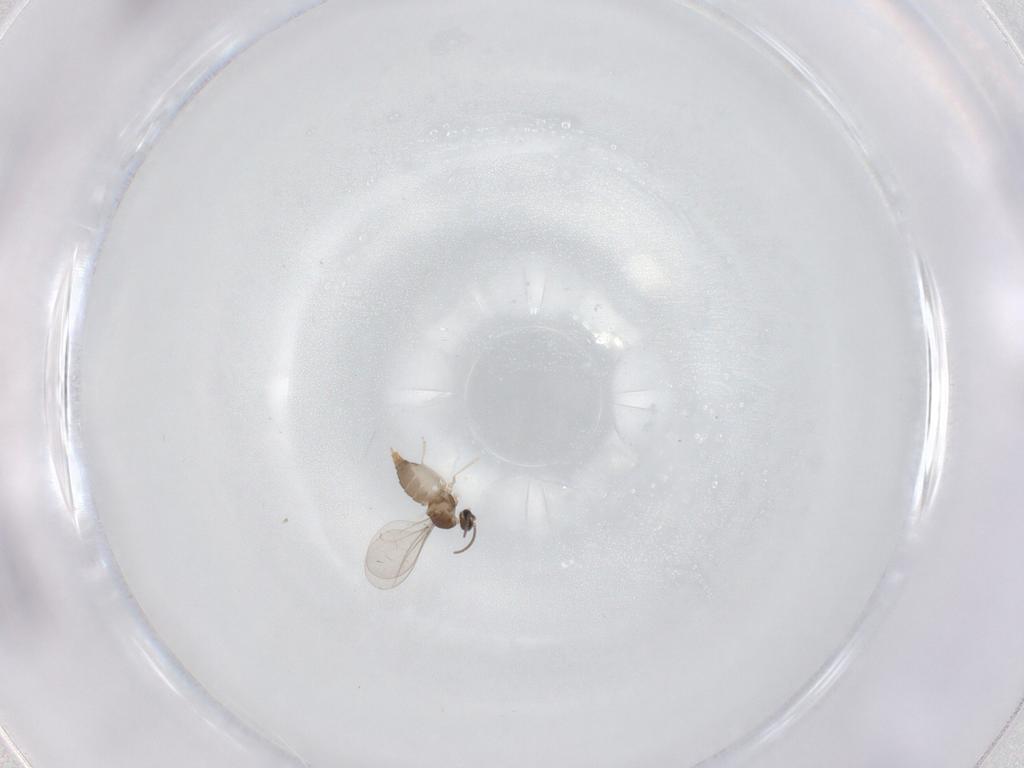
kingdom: Animalia
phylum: Arthropoda
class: Insecta
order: Diptera
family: Cecidomyiidae
